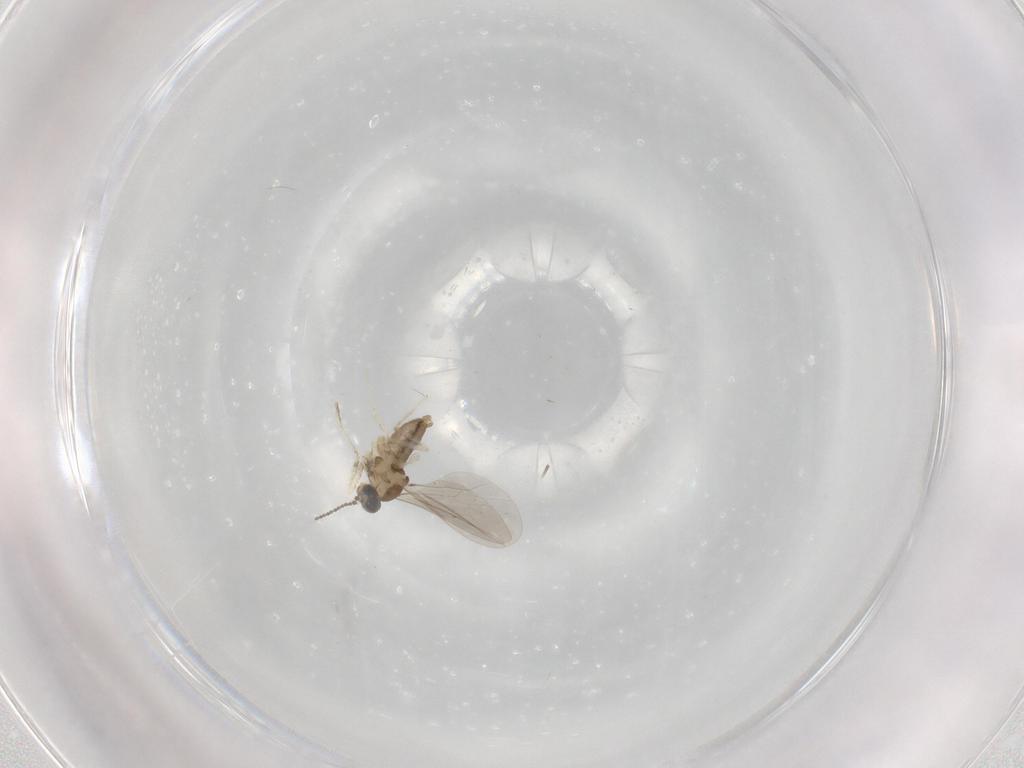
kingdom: Animalia
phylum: Arthropoda
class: Insecta
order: Diptera
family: Cecidomyiidae
